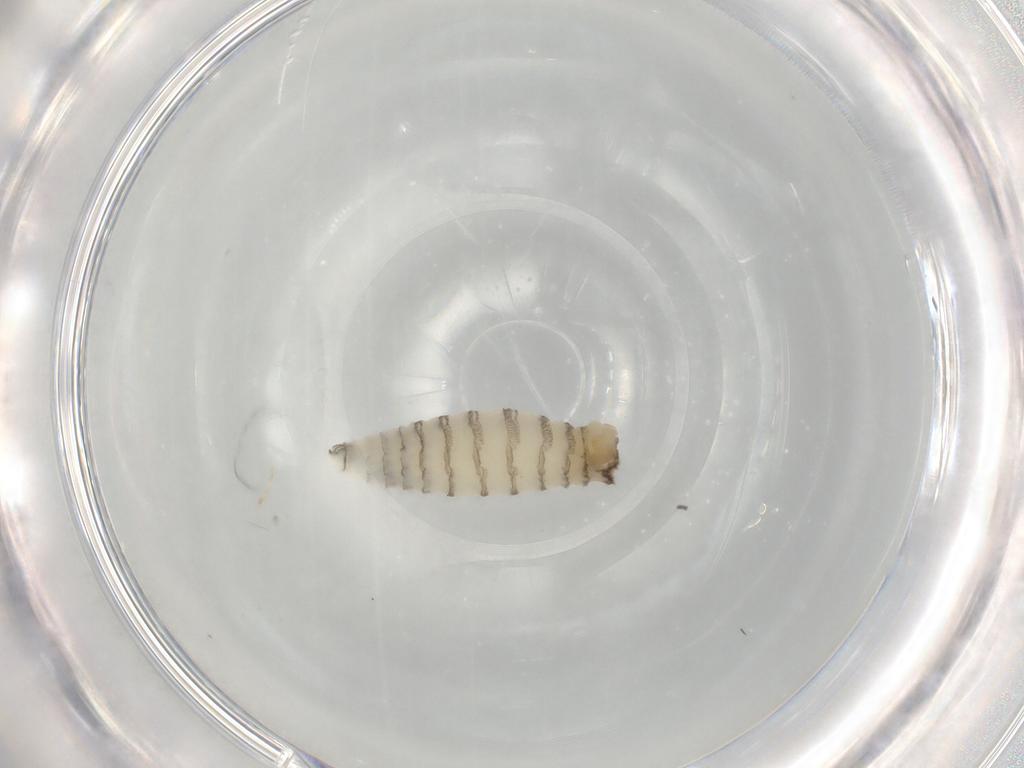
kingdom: Animalia
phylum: Arthropoda
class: Insecta
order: Diptera
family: Sarcophagidae
